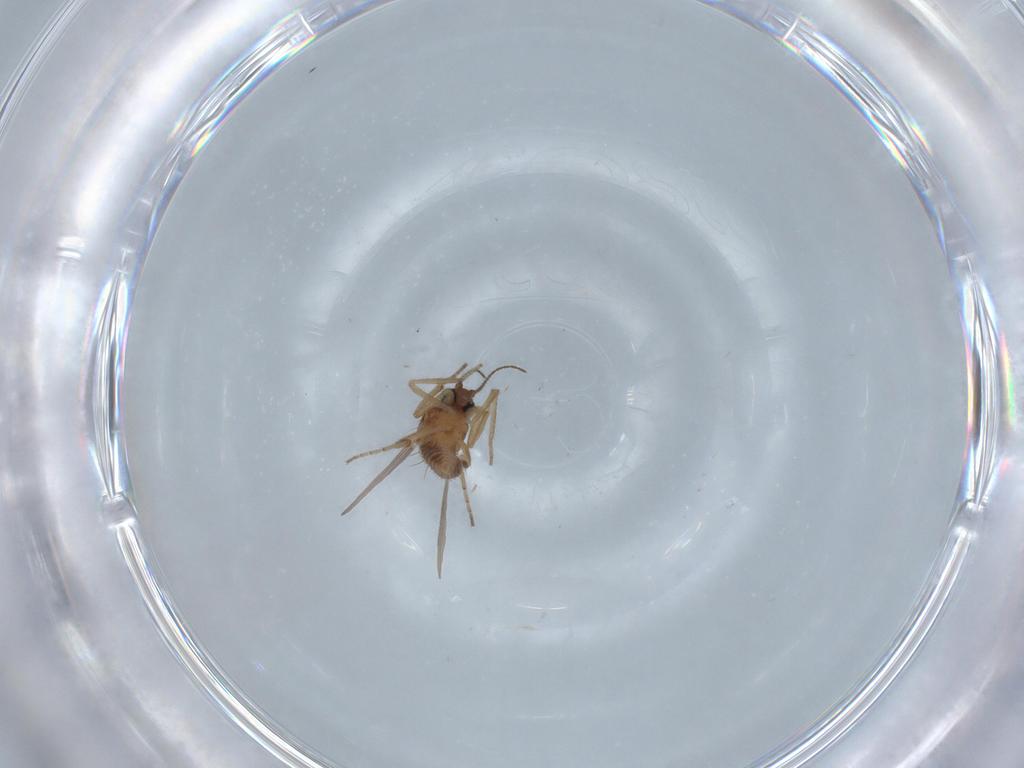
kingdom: Animalia
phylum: Arthropoda
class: Insecta
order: Diptera
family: Ceratopogonidae
